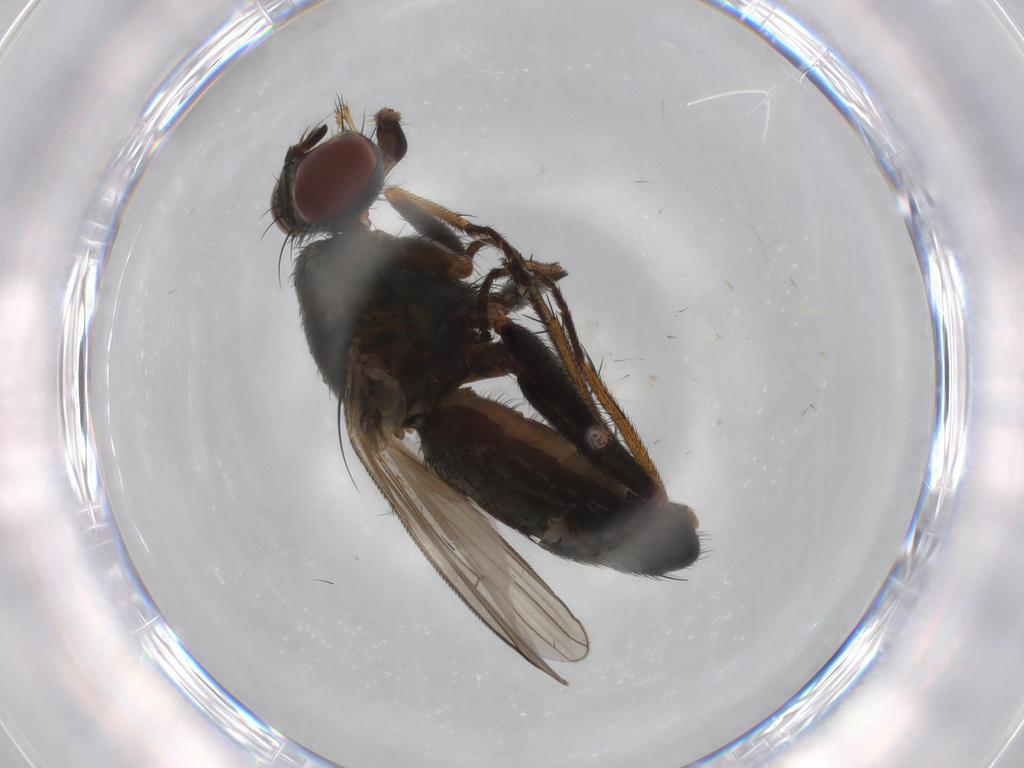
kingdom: Animalia
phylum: Arthropoda
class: Insecta
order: Diptera
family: Muscidae
